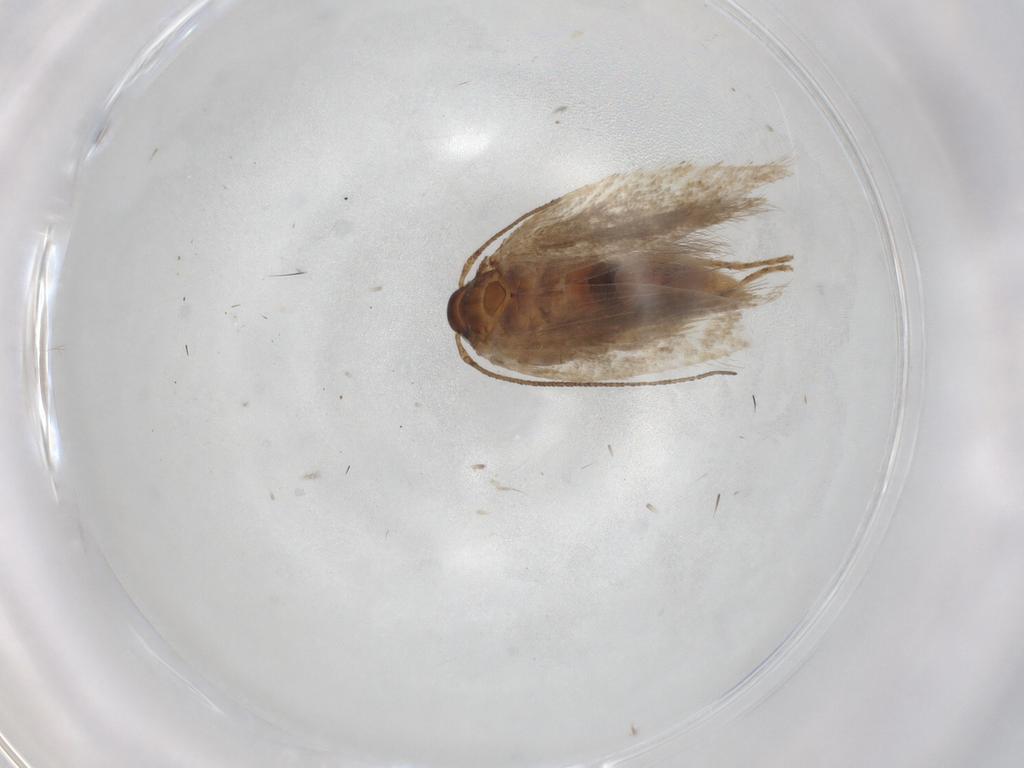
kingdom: Animalia
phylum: Arthropoda
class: Insecta
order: Lepidoptera
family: Gelechiidae
